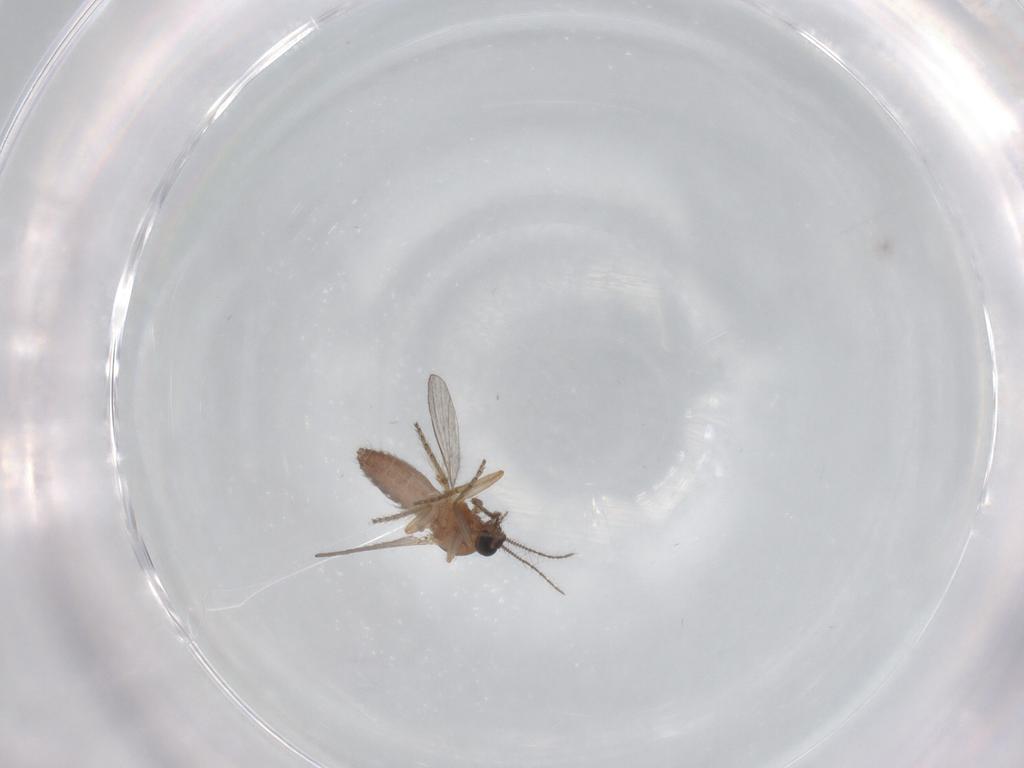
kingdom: Animalia
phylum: Arthropoda
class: Insecta
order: Diptera
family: Ceratopogonidae
